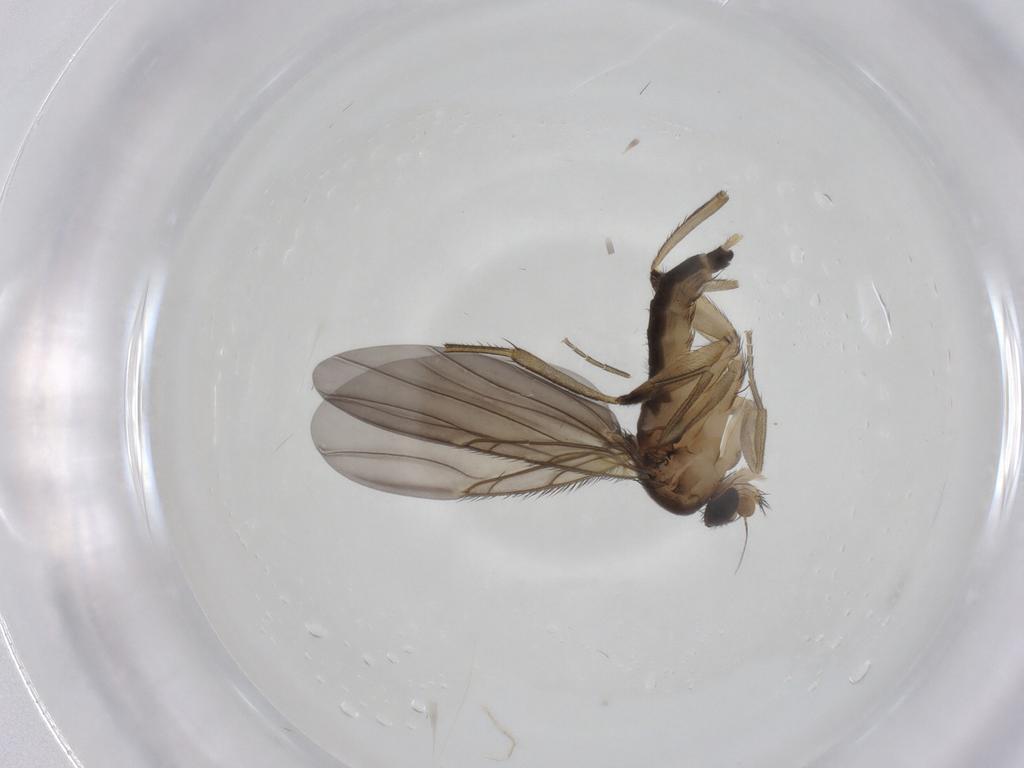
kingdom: Animalia
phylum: Arthropoda
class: Insecta
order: Diptera
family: Phoridae
